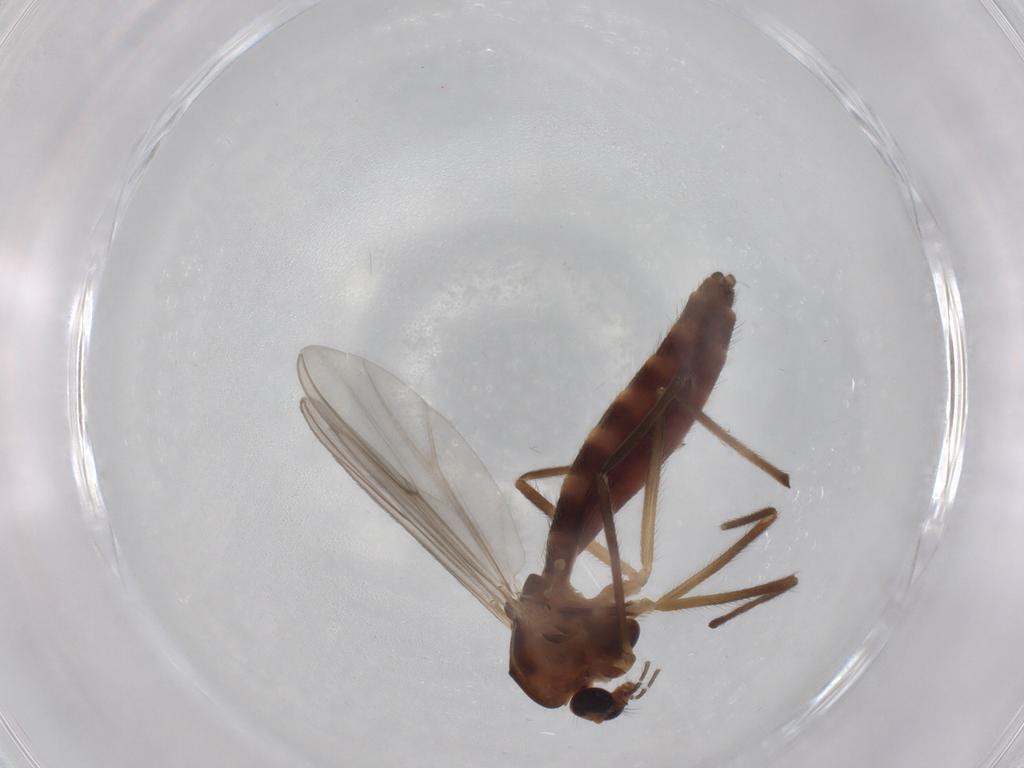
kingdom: Animalia
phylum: Arthropoda
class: Insecta
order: Diptera
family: Chironomidae
